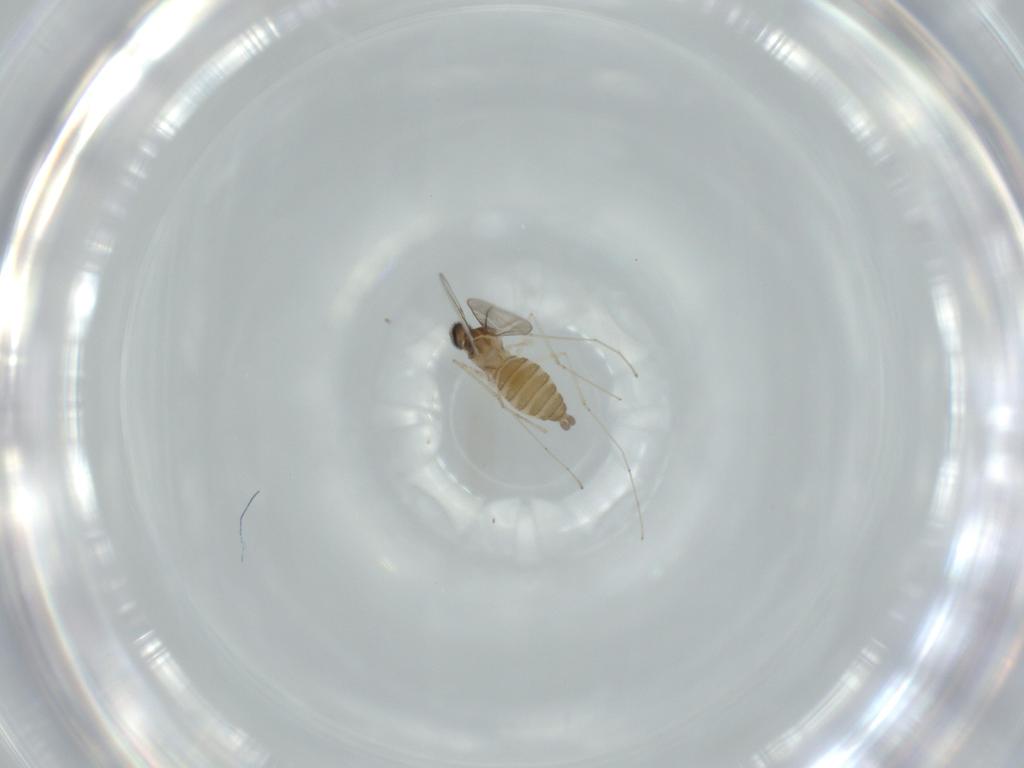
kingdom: Animalia
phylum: Arthropoda
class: Insecta
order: Diptera
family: Cecidomyiidae
